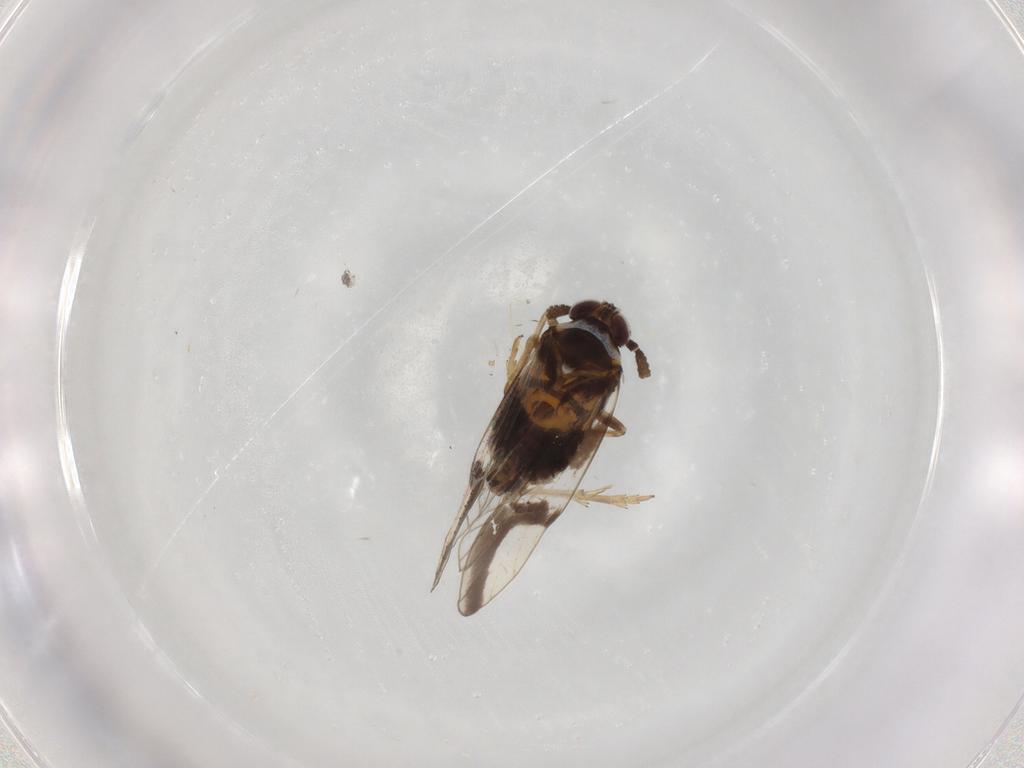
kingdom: Animalia
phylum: Arthropoda
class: Insecta
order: Hemiptera
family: Delphacidae
